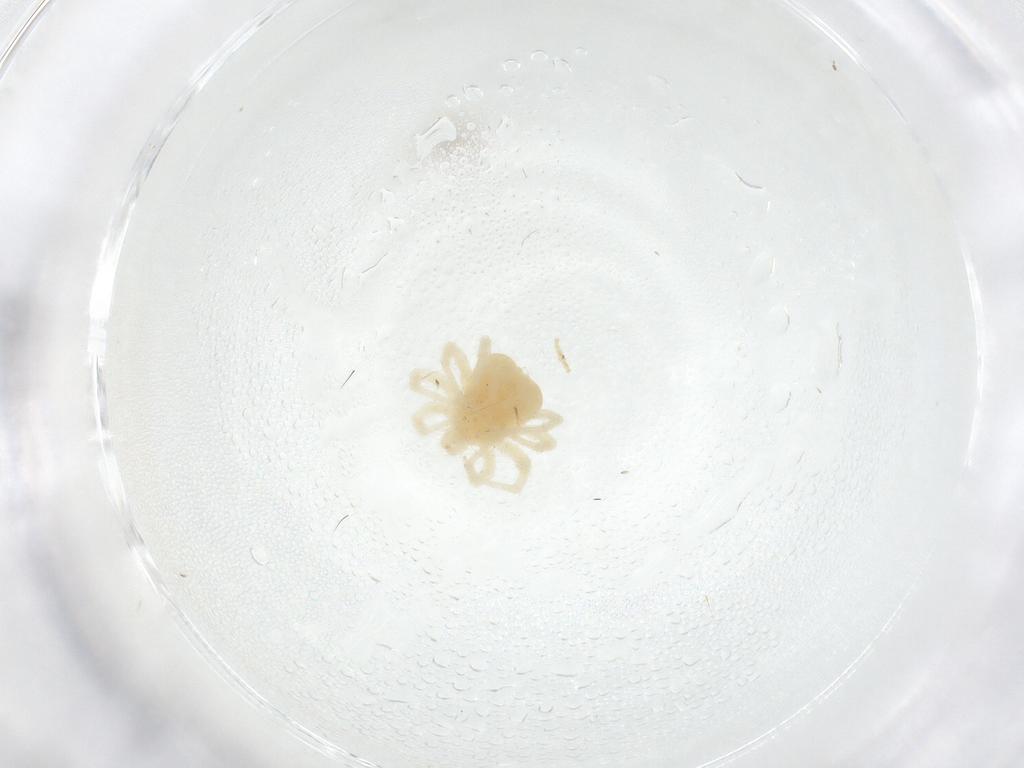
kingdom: Animalia
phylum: Arthropoda
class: Arachnida
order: Trombidiformes
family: Anystidae
